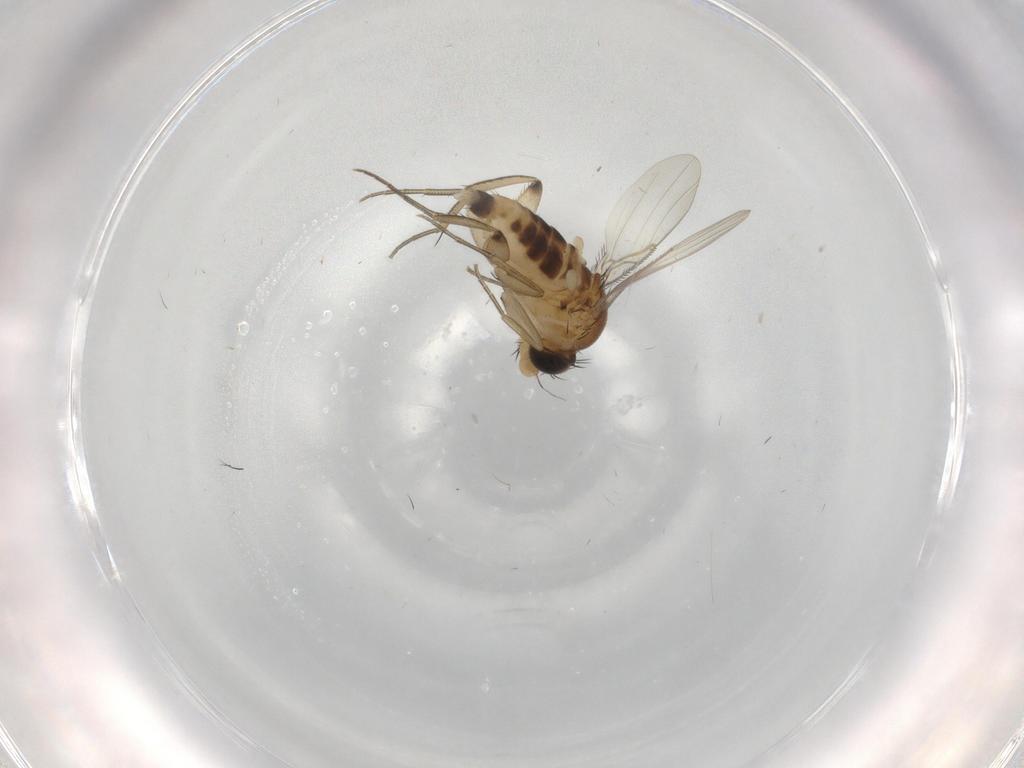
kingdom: Animalia
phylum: Arthropoda
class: Insecta
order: Diptera
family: Phoridae
